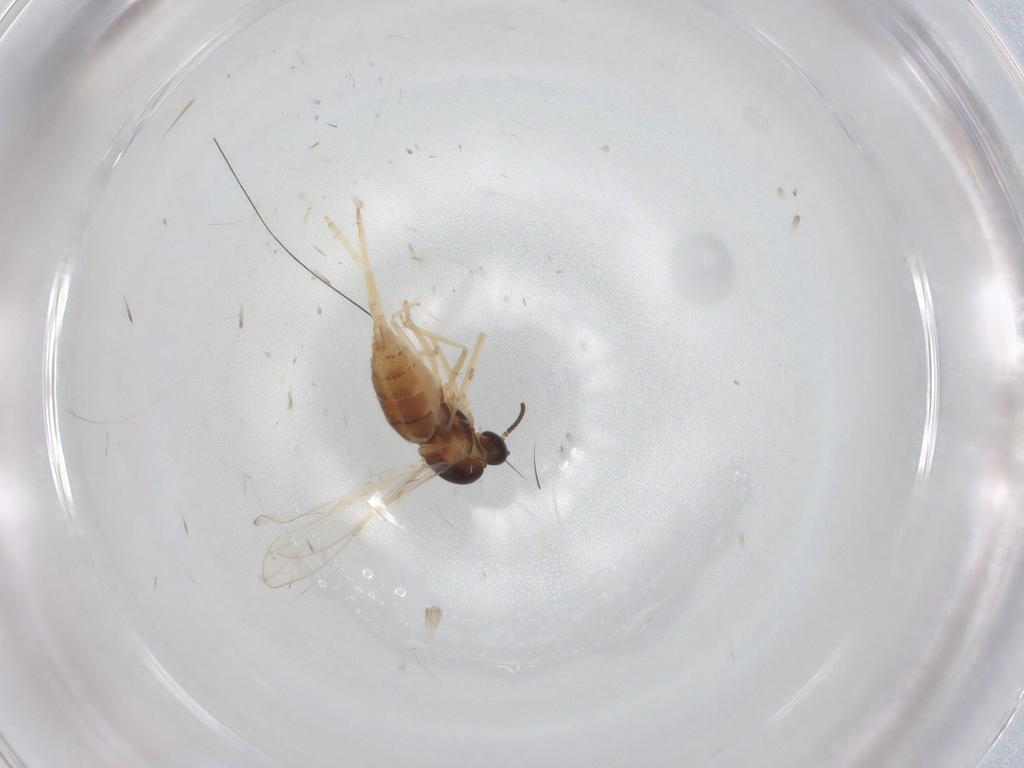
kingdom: Animalia
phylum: Arthropoda
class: Insecta
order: Diptera
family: Cecidomyiidae
